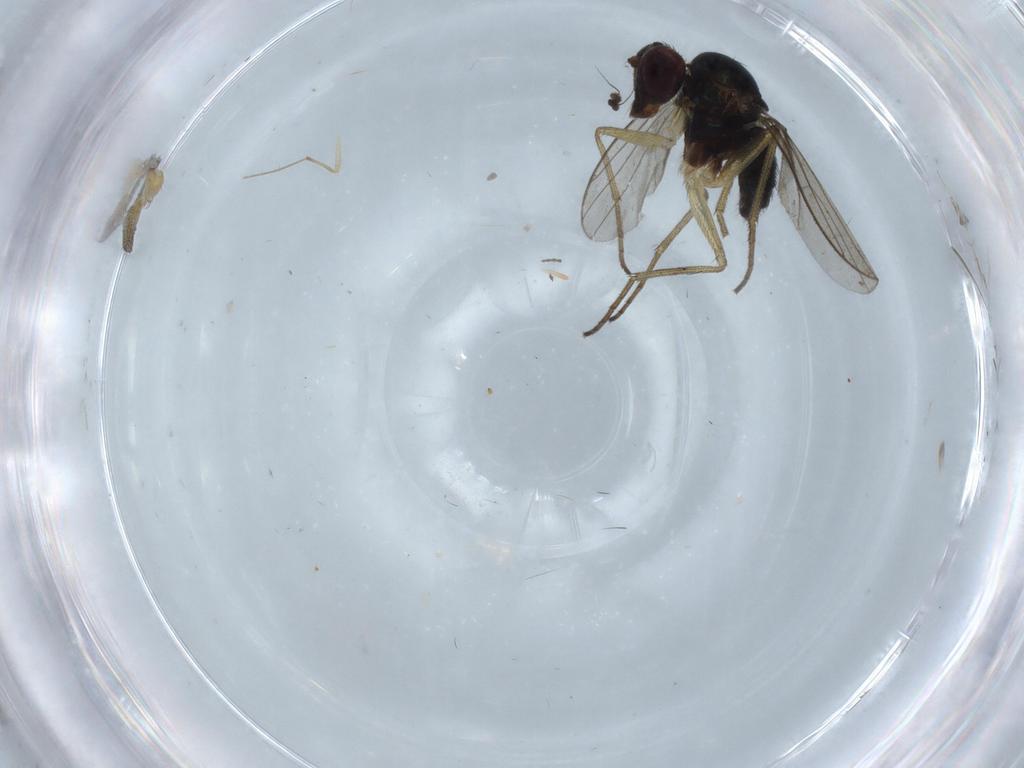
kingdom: Animalia
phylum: Arthropoda
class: Insecta
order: Diptera
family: Dolichopodidae
